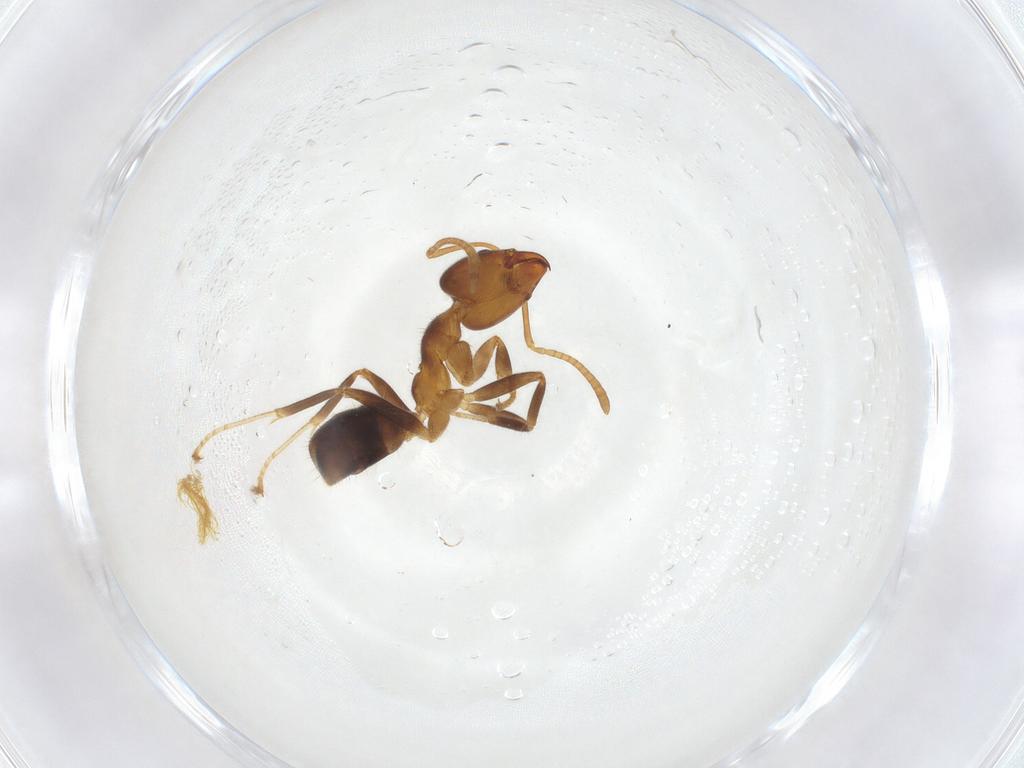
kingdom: Animalia
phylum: Arthropoda
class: Insecta
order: Hymenoptera
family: Formicidae
